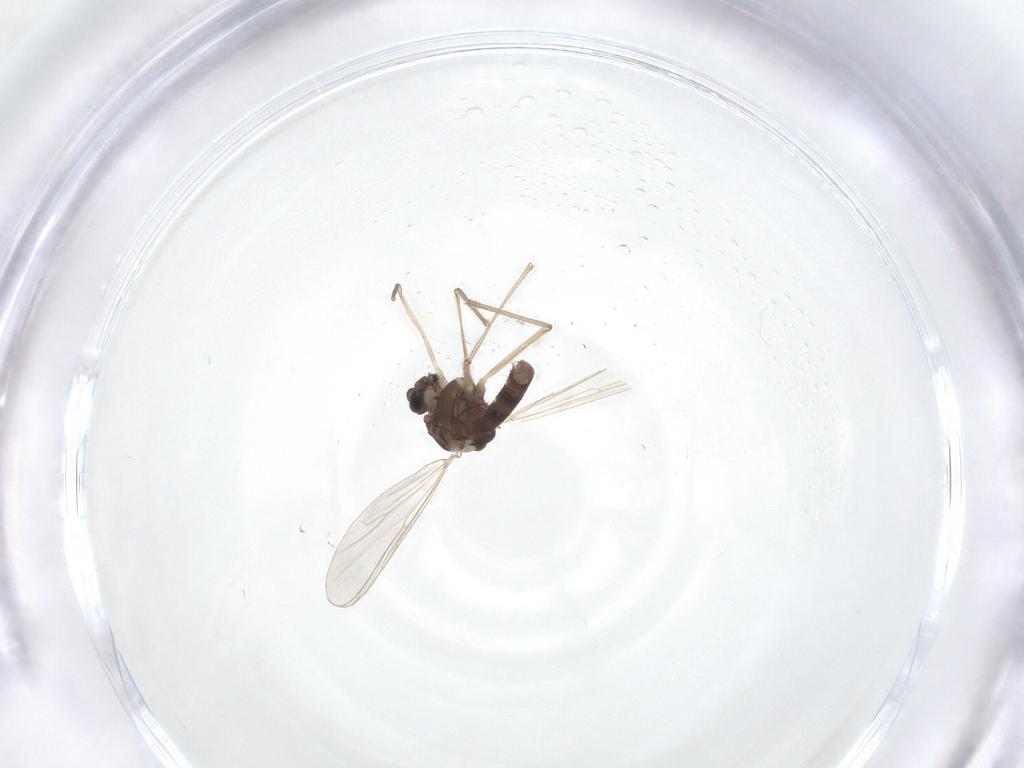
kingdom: Animalia
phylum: Arthropoda
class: Insecta
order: Diptera
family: Chironomidae
